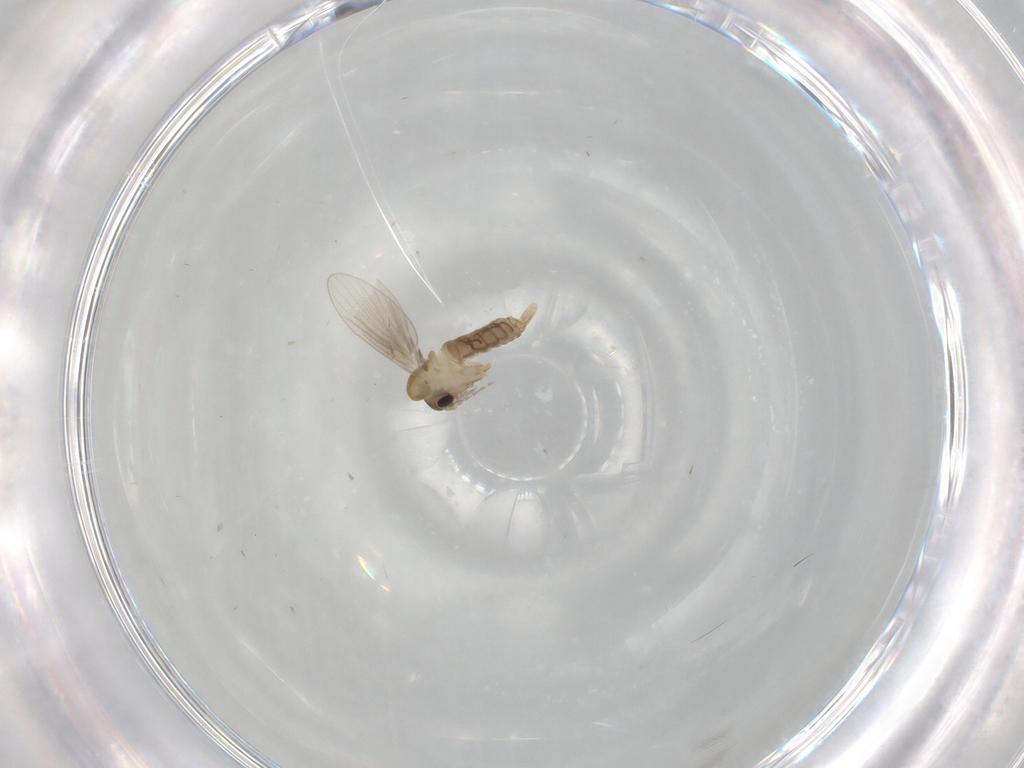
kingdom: Animalia
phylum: Arthropoda
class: Insecta
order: Diptera
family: Psychodidae
